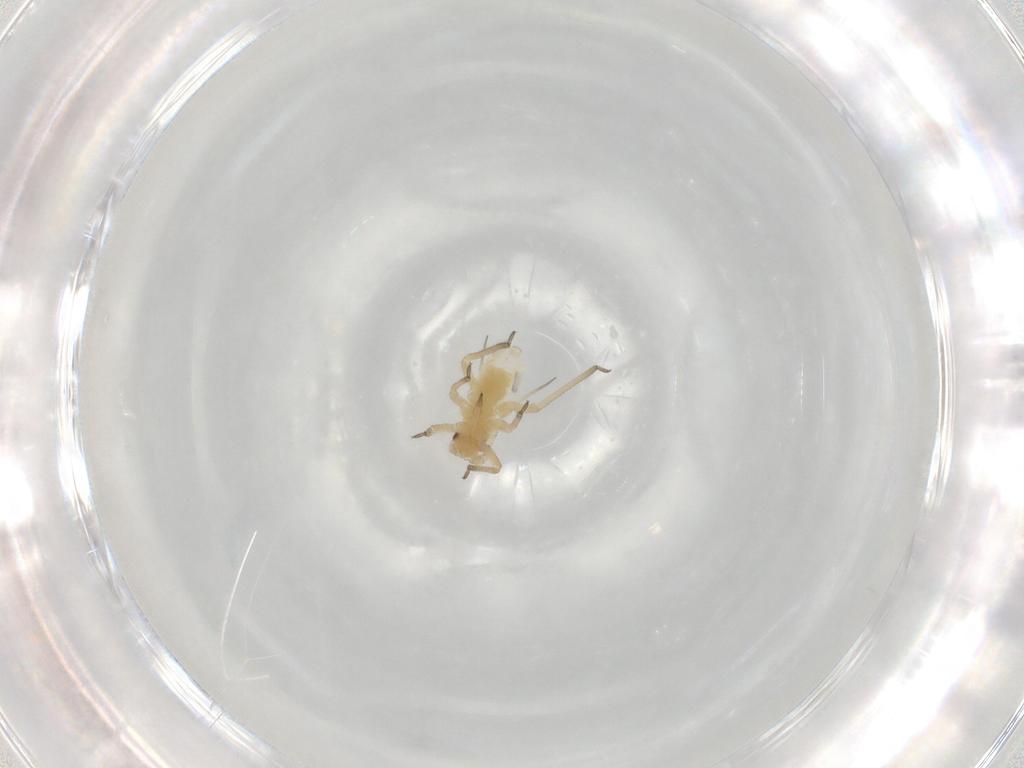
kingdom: Animalia
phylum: Arthropoda
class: Insecta
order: Hemiptera
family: Aphididae
